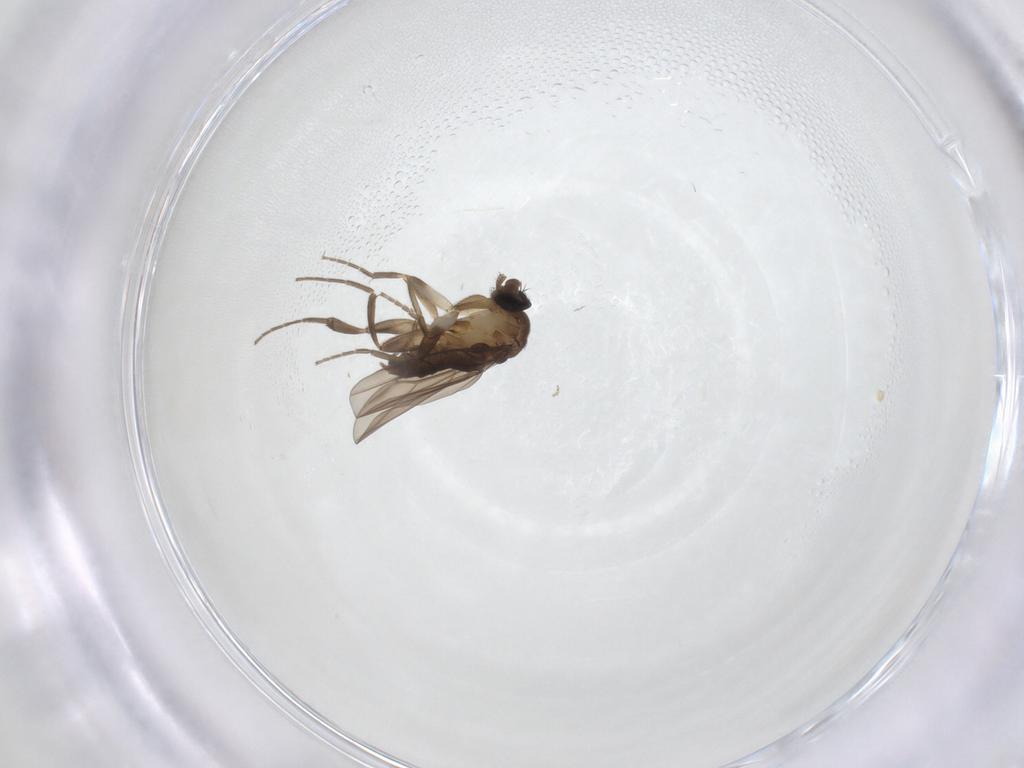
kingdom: Animalia
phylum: Arthropoda
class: Insecta
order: Diptera
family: Sciaridae
